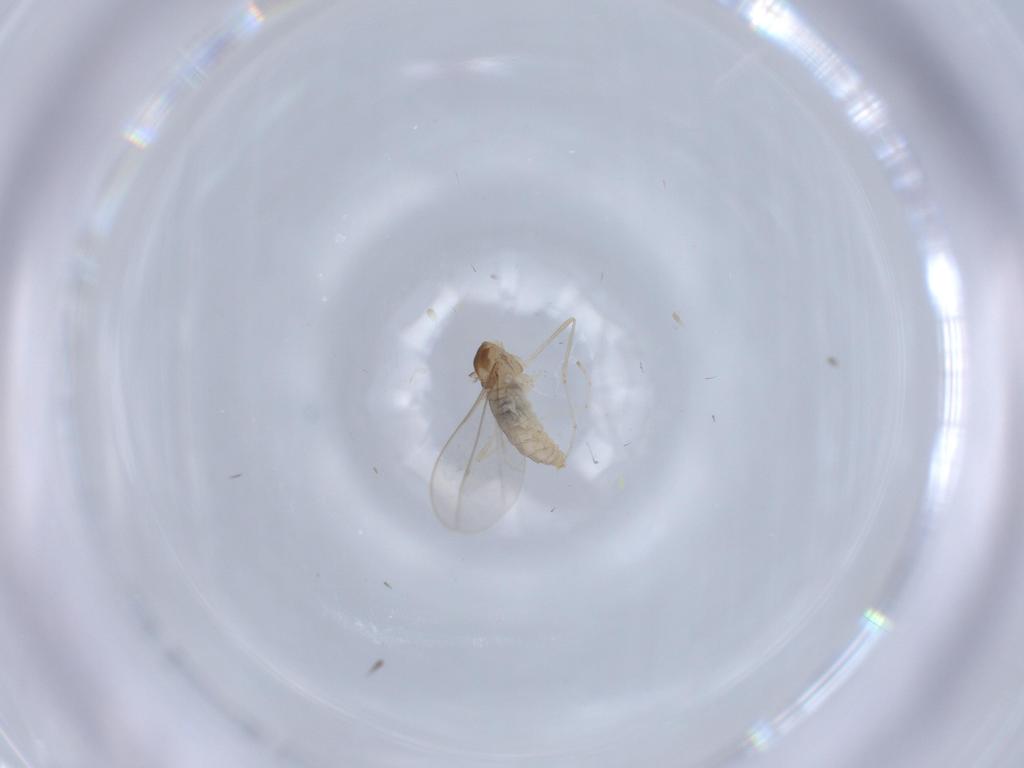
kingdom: Animalia
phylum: Arthropoda
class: Insecta
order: Diptera
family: Cecidomyiidae
